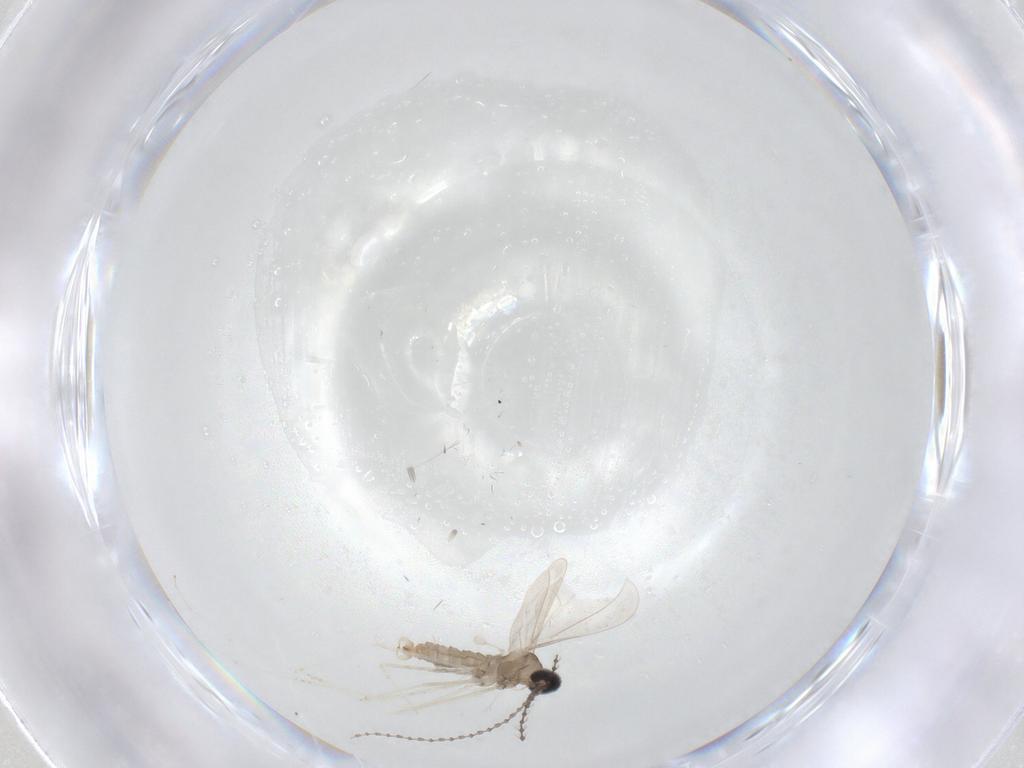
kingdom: Animalia
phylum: Arthropoda
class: Insecta
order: Diptera
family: Cecidomyiidae
